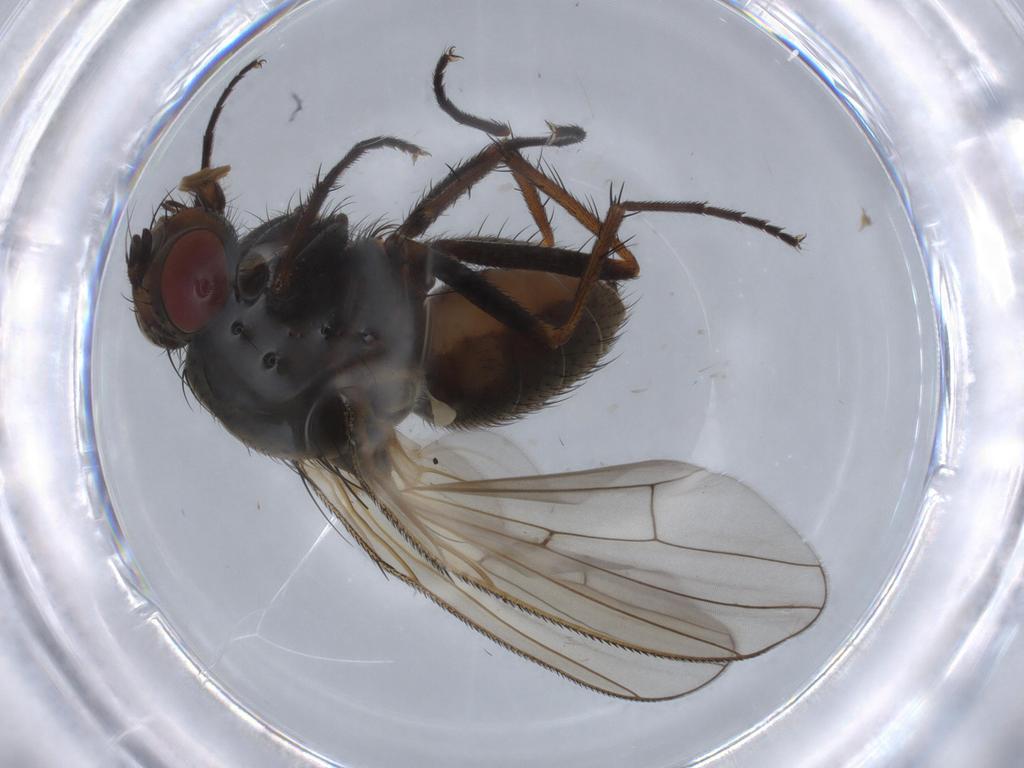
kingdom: Animalia
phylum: Arthropoda
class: Insecta
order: Diptera
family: Anthomyiidae
